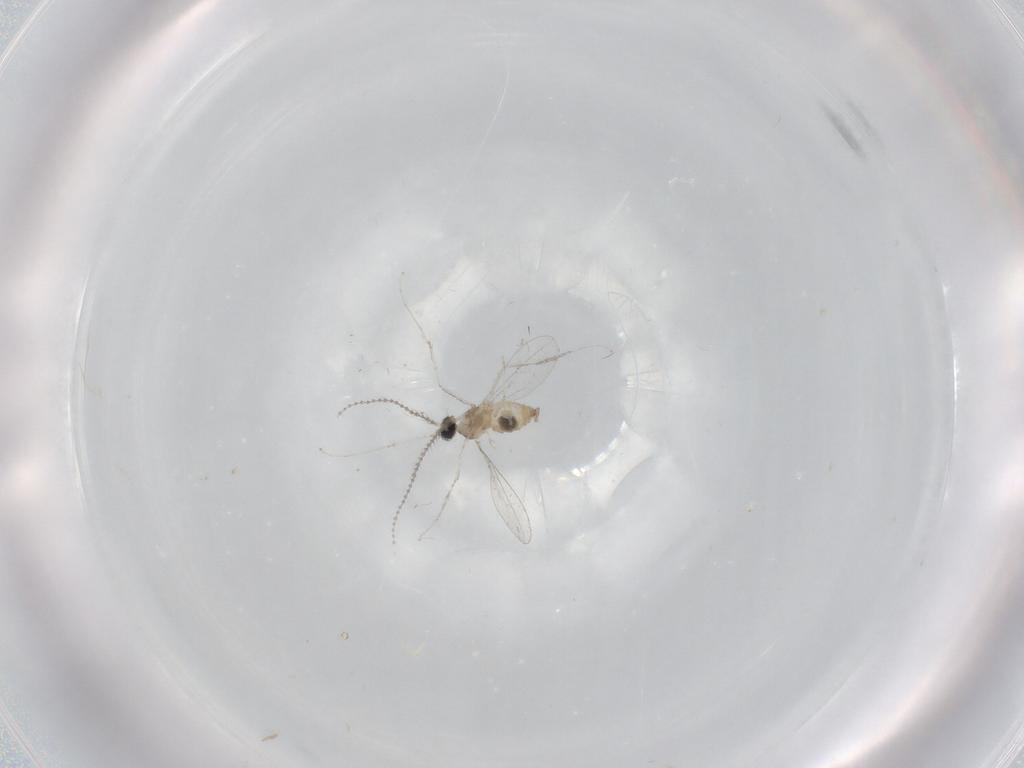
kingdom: Animalia
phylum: Arthropoda
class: Insecta
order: Diptera
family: Cecidomyiidae
